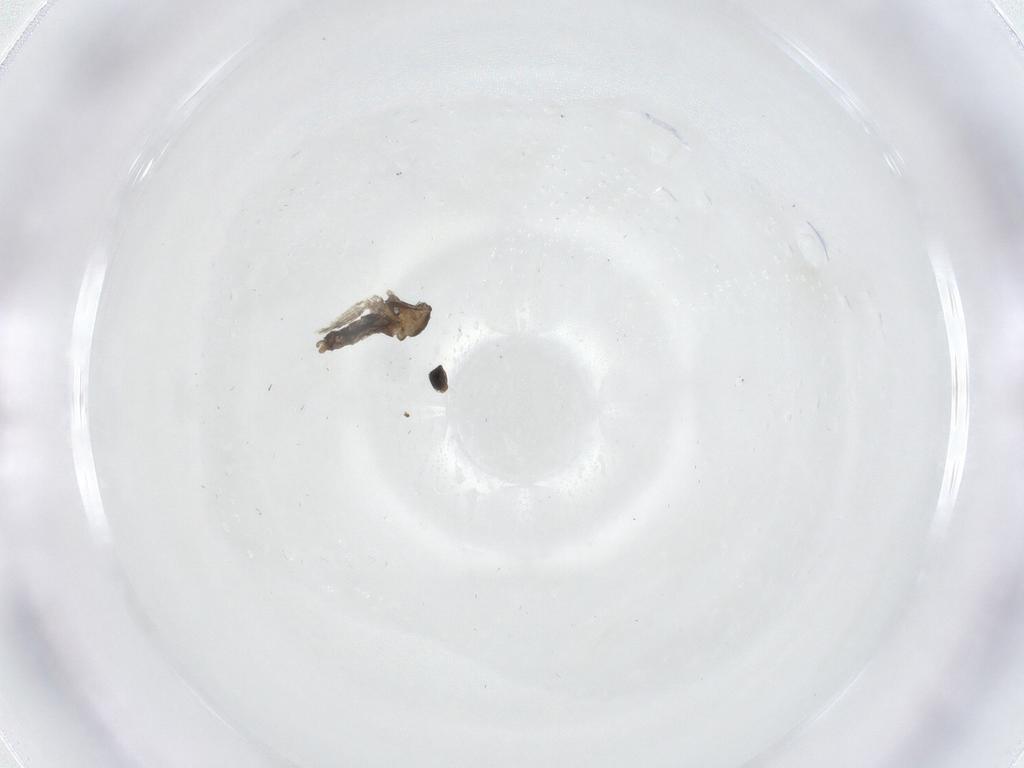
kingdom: Animalia
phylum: Arthropoda
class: Insecta
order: Diptera
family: Cecidomyiidae
